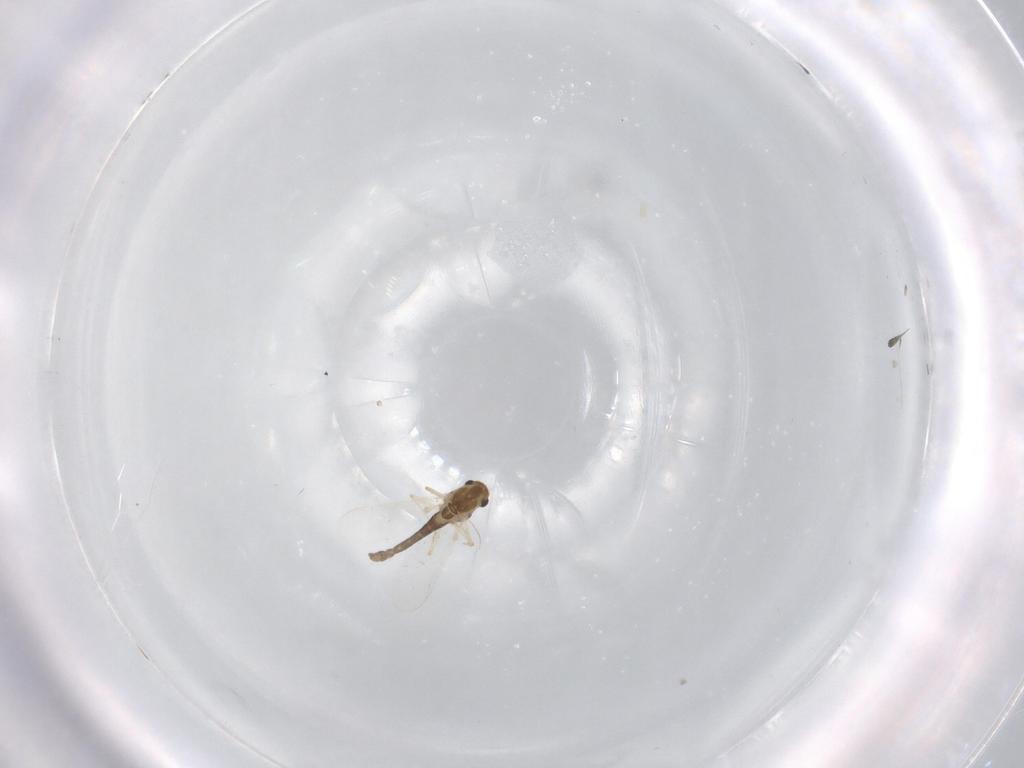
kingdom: Animalia
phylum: Arthropoda
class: Insecta
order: Diptera
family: Chironomidae
